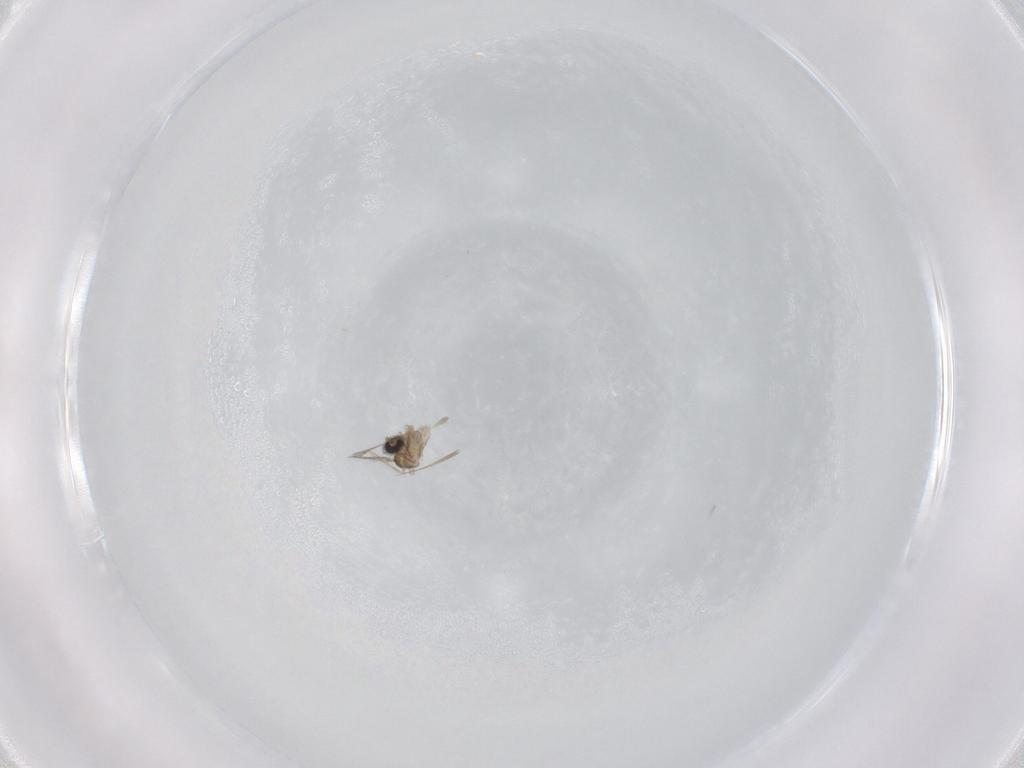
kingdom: Animalia
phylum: Arthropoda
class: Insecta
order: Diptera
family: Cecidomyiidae
